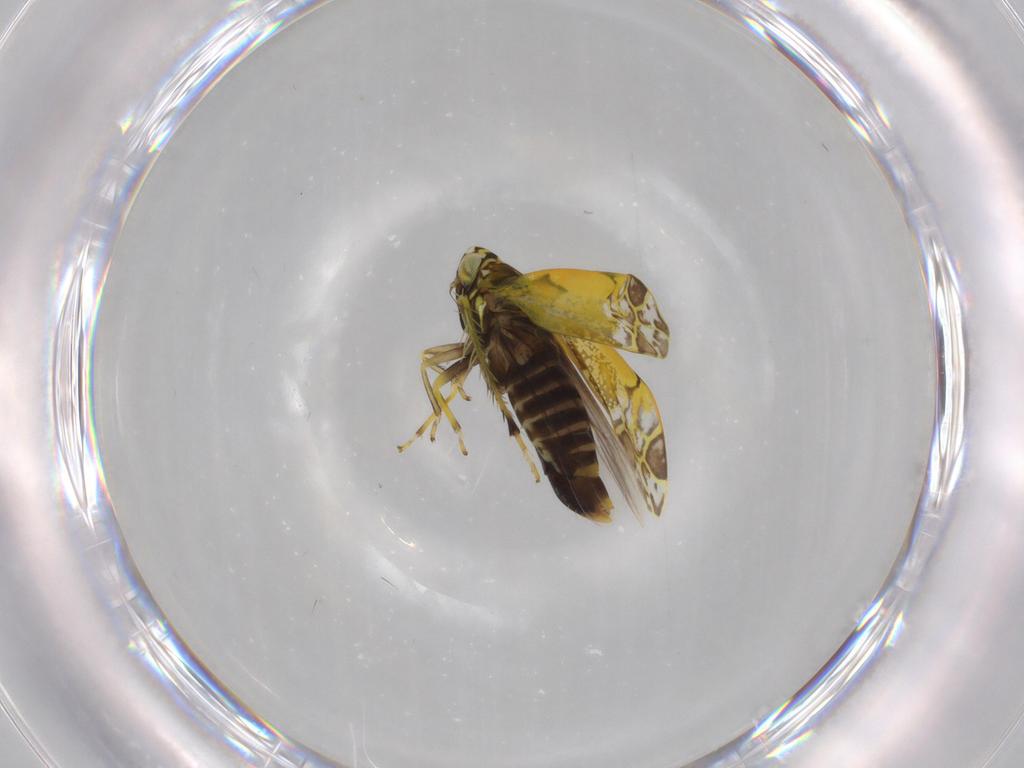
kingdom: Animalia
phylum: Arthropoda
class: Insecta
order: Hemiptera
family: Cicadellidae
